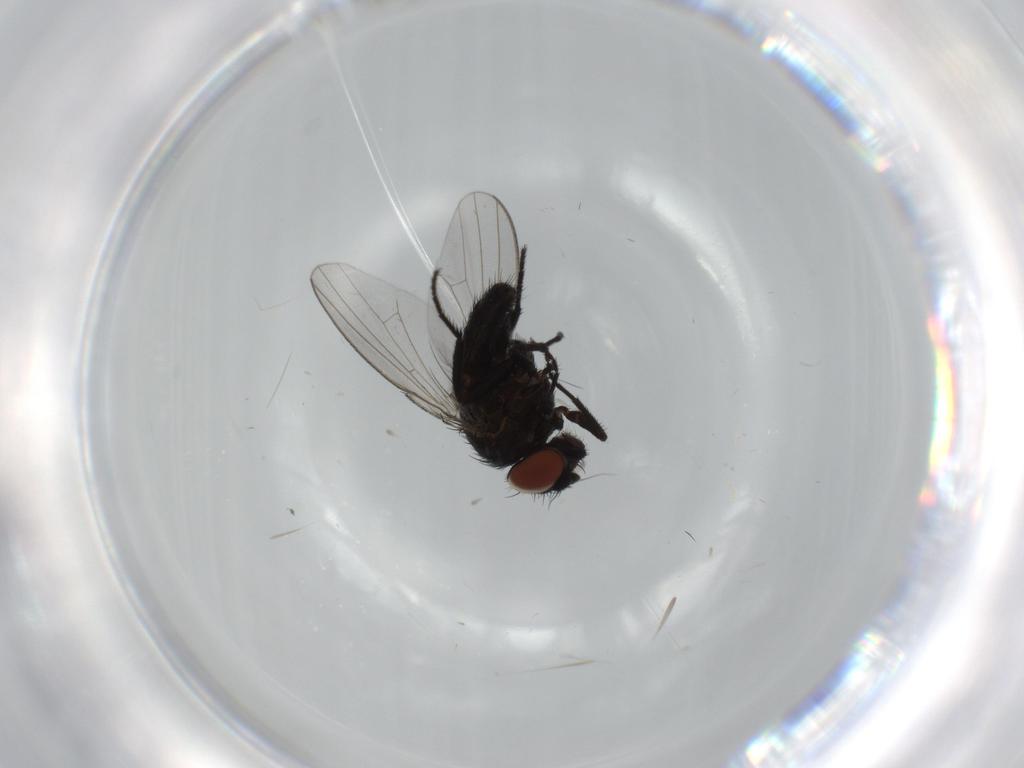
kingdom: Animalia
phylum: Arthropoda
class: Insecta
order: Diptera
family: Milichiidae
